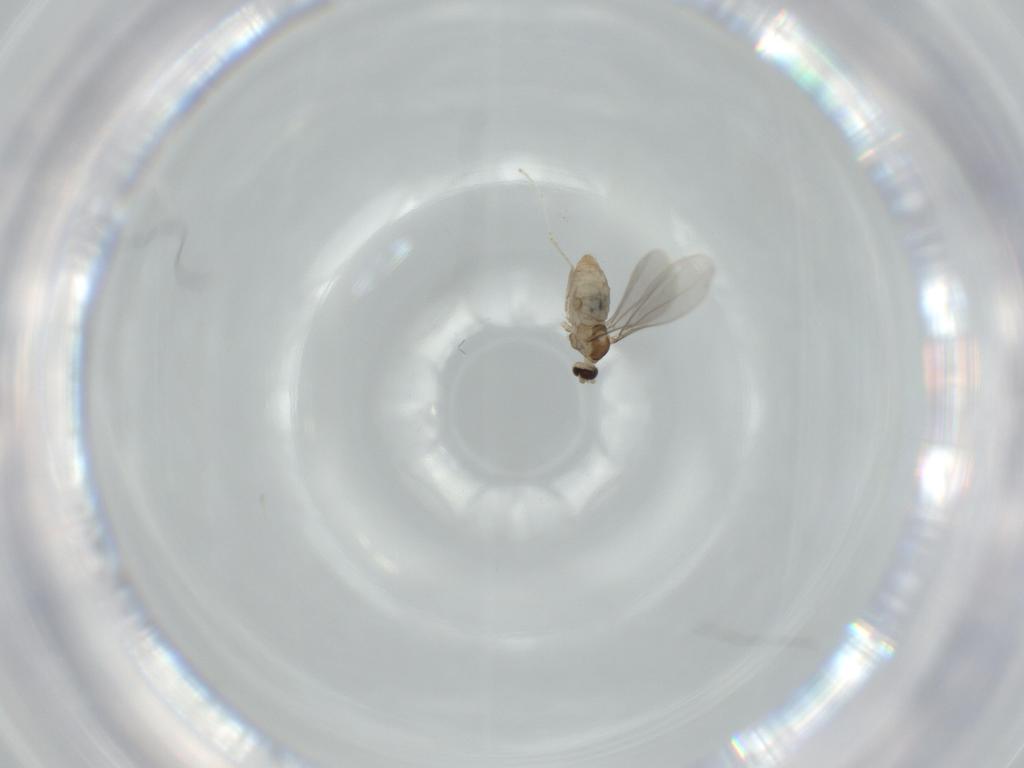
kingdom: Animalia
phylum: Arthropoda
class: Insecta
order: Diptera
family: Cecidomyiidae
